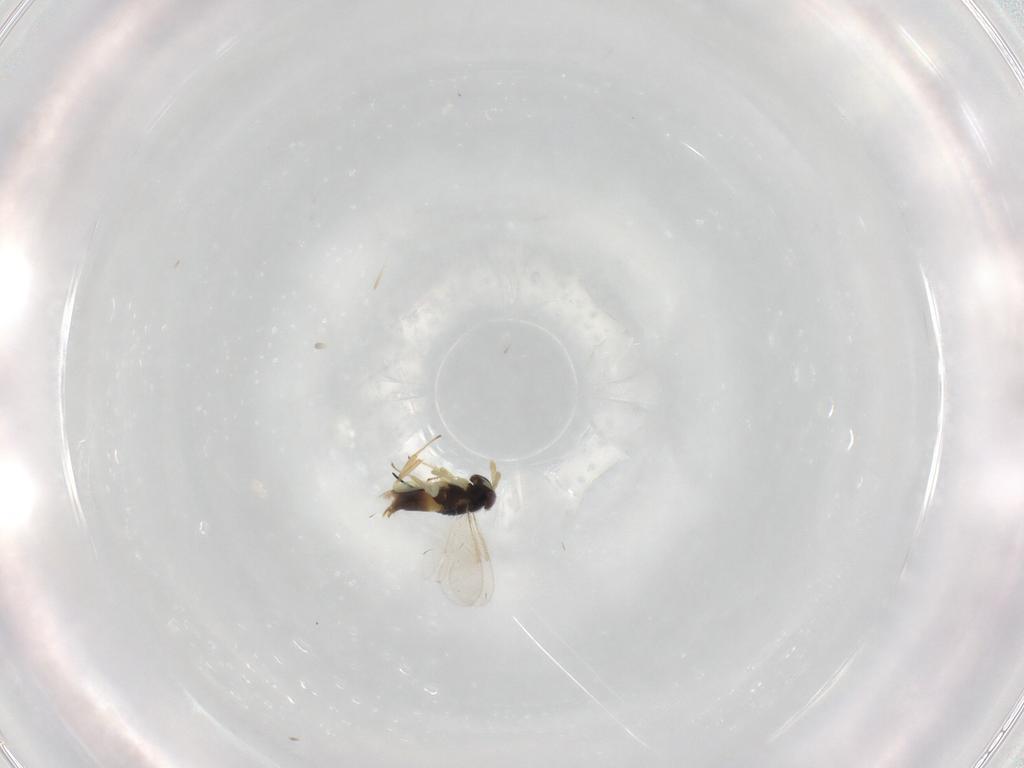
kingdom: Animalia
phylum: Arthropoda
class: Insecta
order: Hymenoptera
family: Aphelinidae
